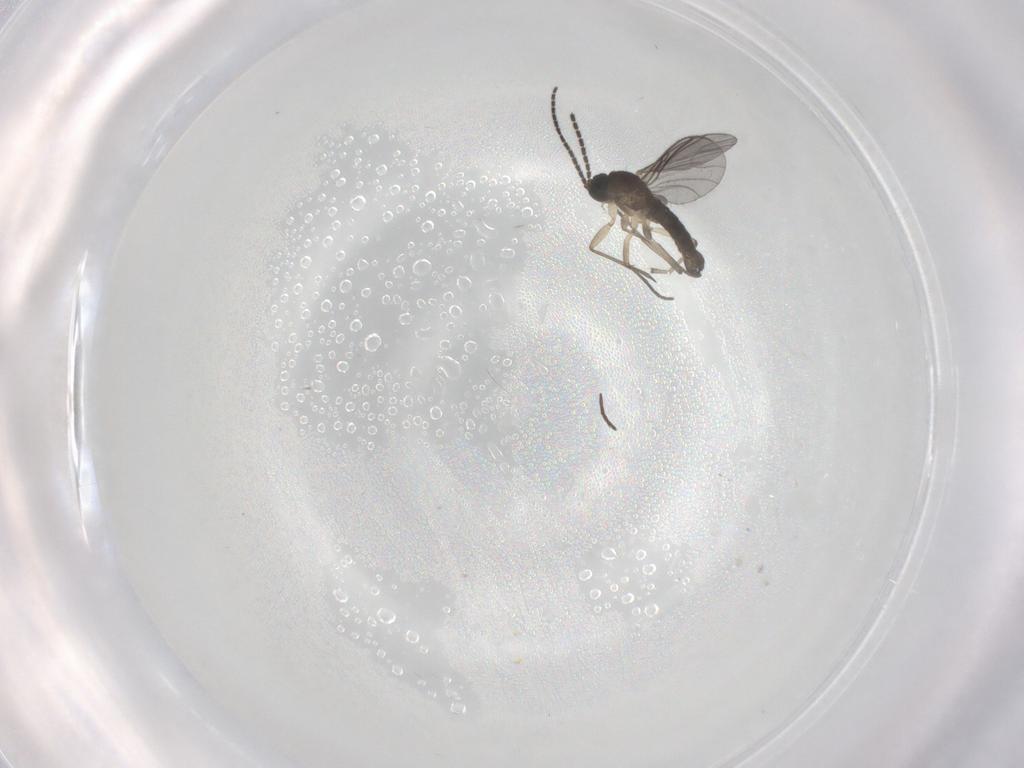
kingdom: Animalia
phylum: Arthropoda
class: Insecta
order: Diptera
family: Sciaridae
